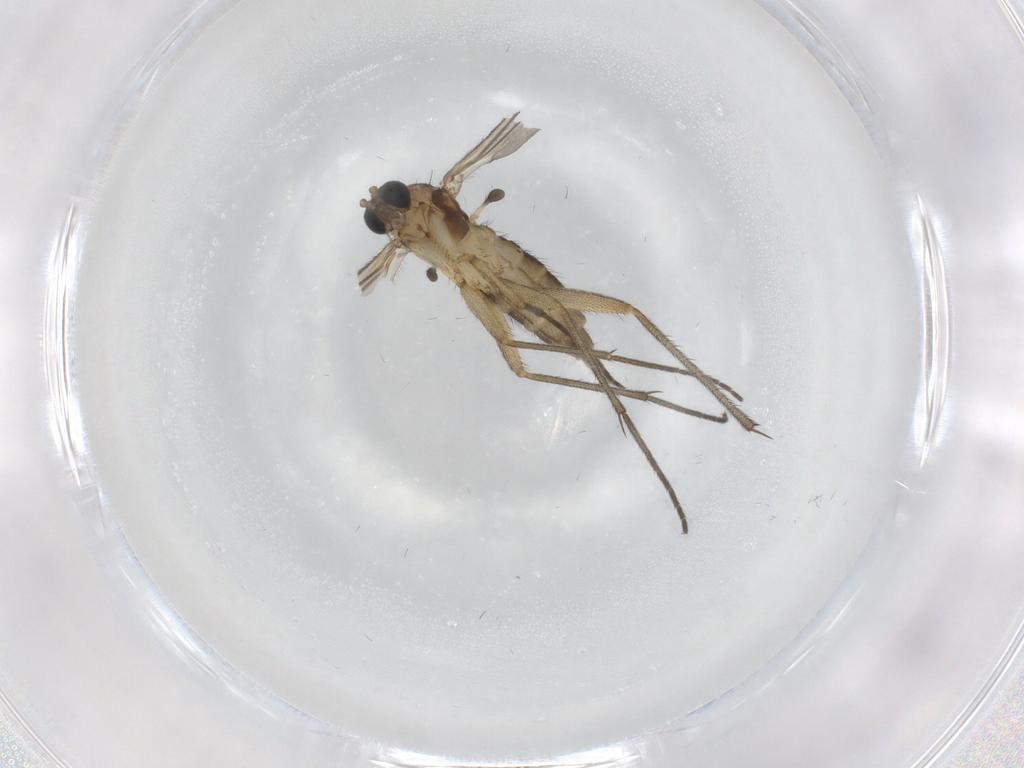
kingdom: Animalia
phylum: Arthropoda
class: Insecta
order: Diptera
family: Sciaridae
